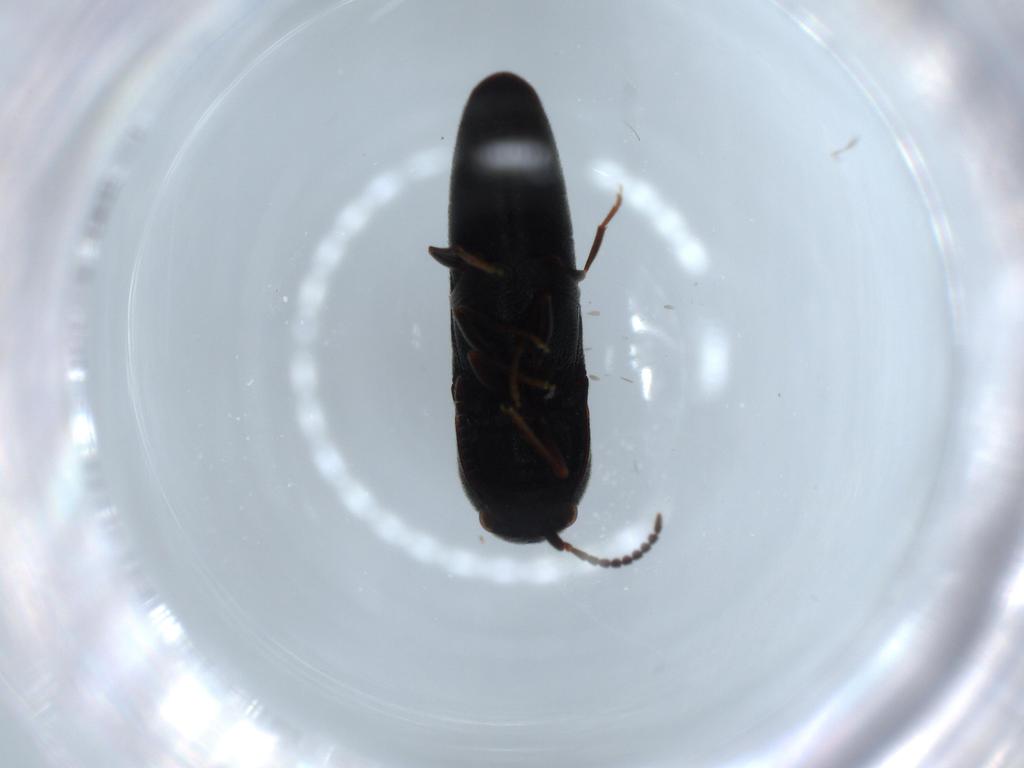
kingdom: Animalia
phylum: Arthropoda
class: Insecta
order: Coleoptera
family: Eucnemidae
